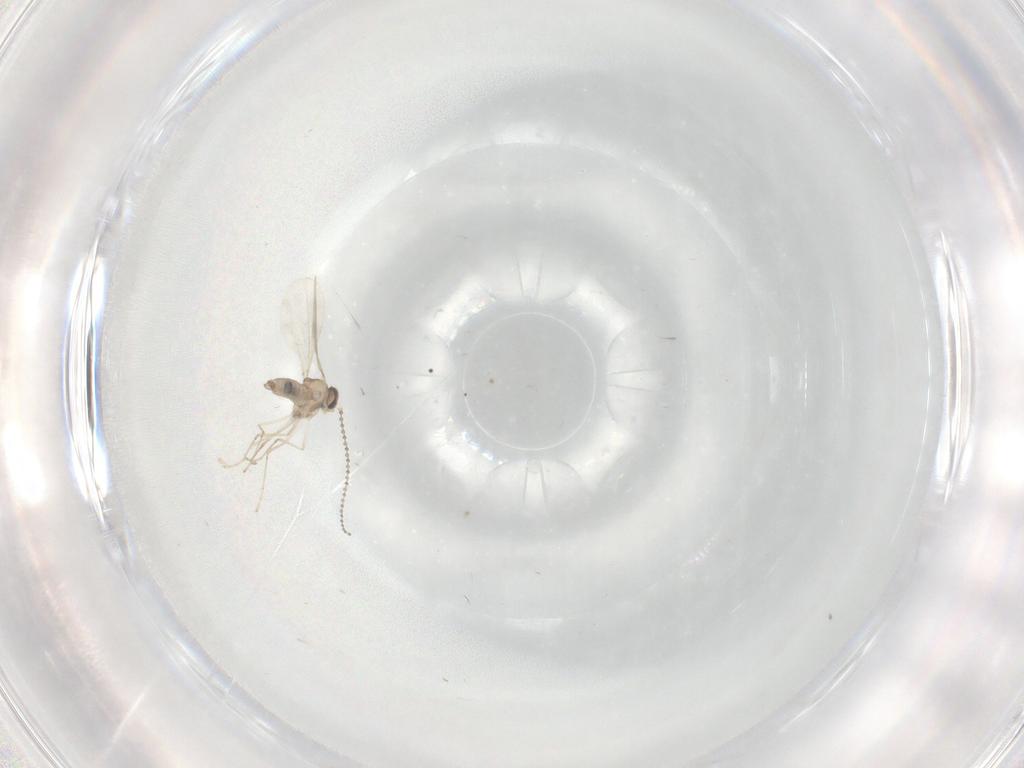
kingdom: Animalia
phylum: Arthropoda
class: Insecta
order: Diptera
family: Cecidomyiidae
